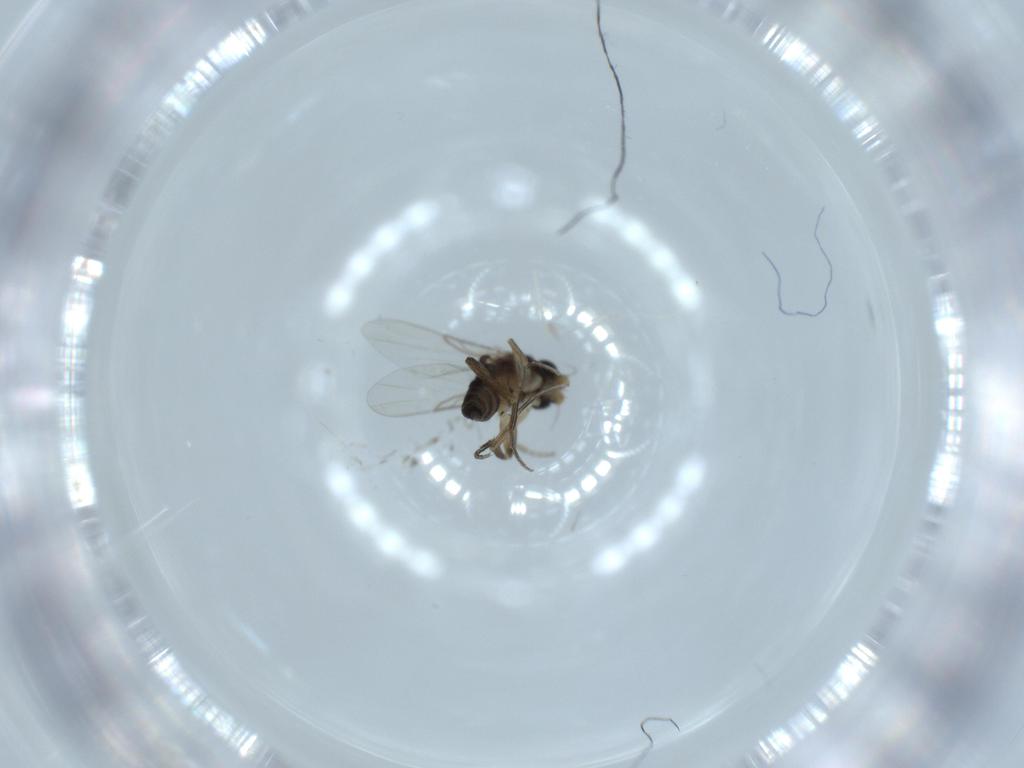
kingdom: Animalia
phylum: Arthropoda
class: Insecta
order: Diptera
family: Phoridae
